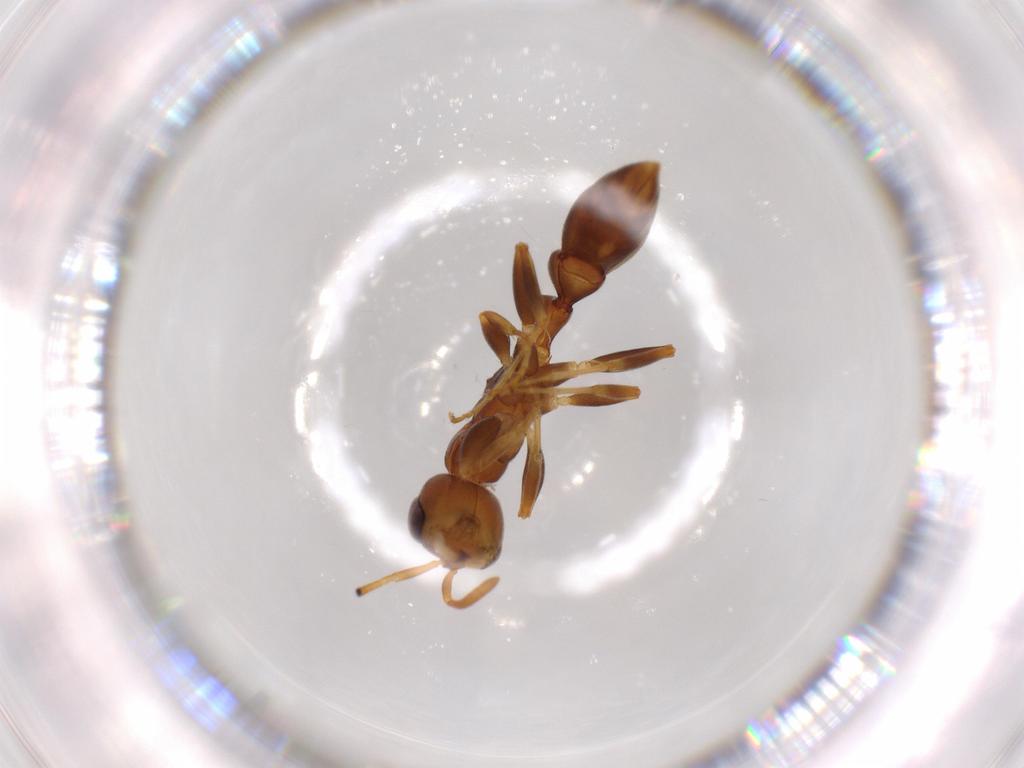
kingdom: Animalia
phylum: Arthropoda
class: Insecta
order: Hymenoptera
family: Formicidae
